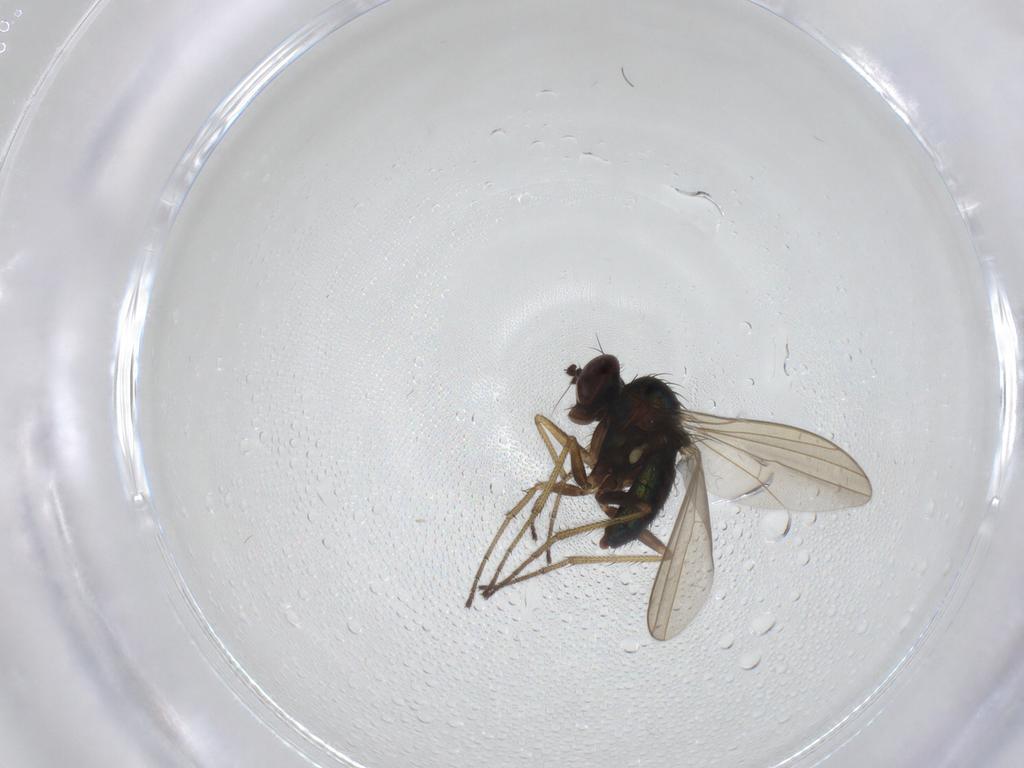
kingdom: Animalia
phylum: Arthropoda
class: Insecta
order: Diptera
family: Dolichopodidae
